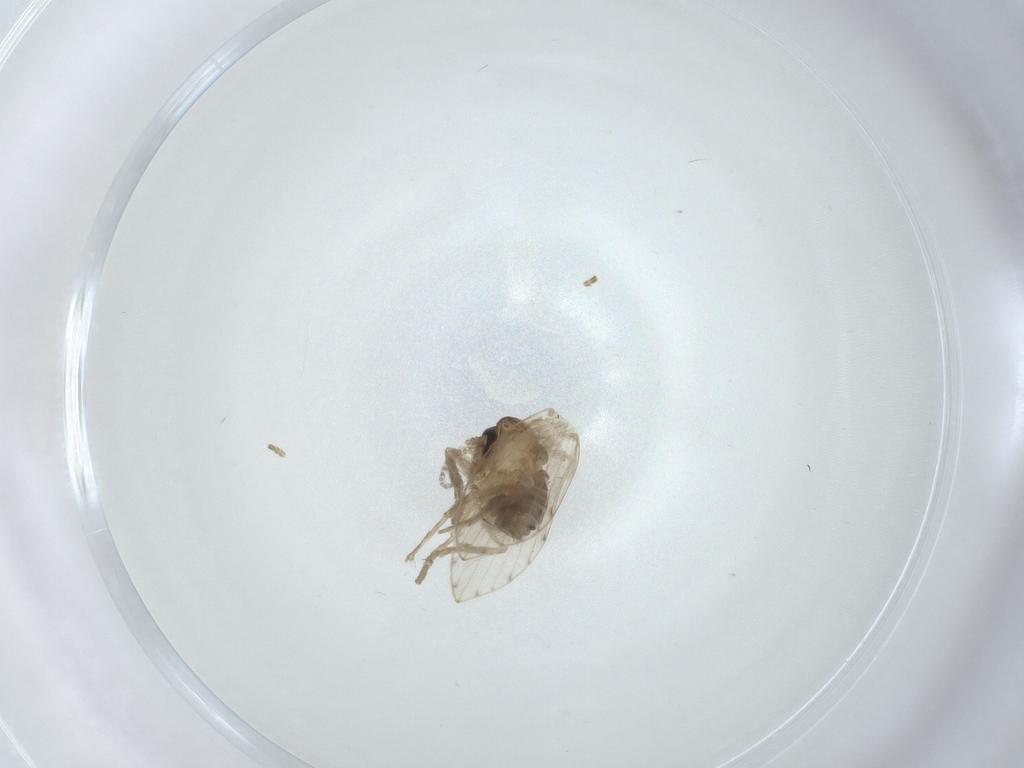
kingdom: Animalia
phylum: Arthropoda
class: Insecta
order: Diptera
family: Psychodidae
